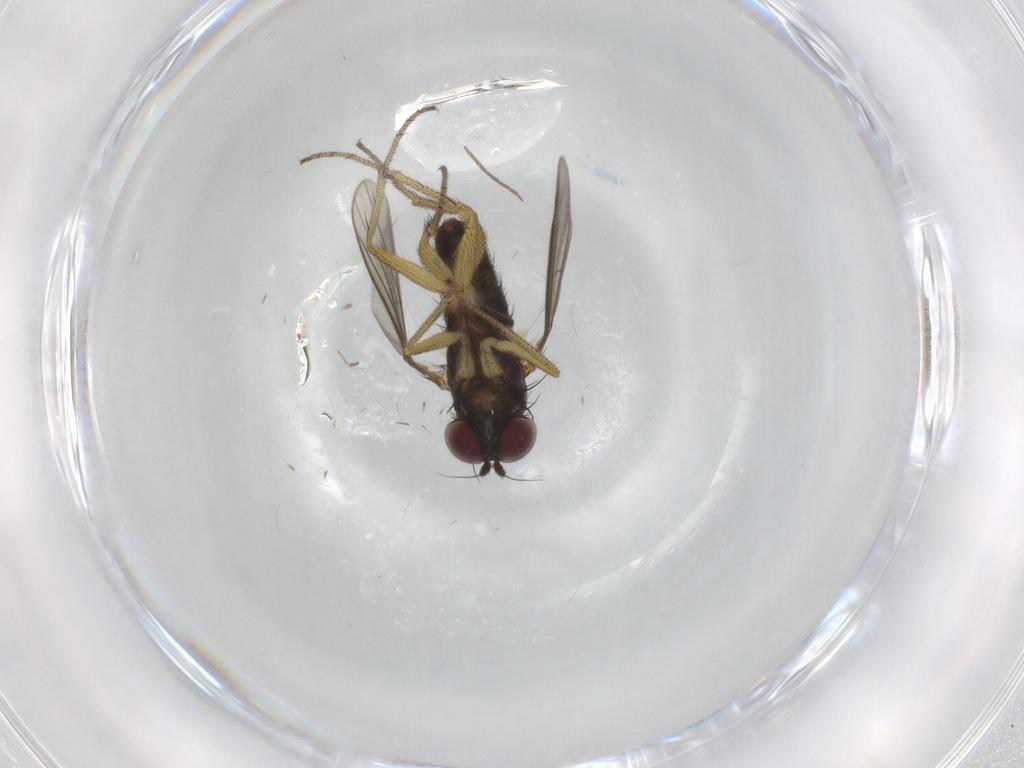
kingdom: Animalia
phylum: Arthropoda
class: Insecta
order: Diptera
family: Dolichopodidae
